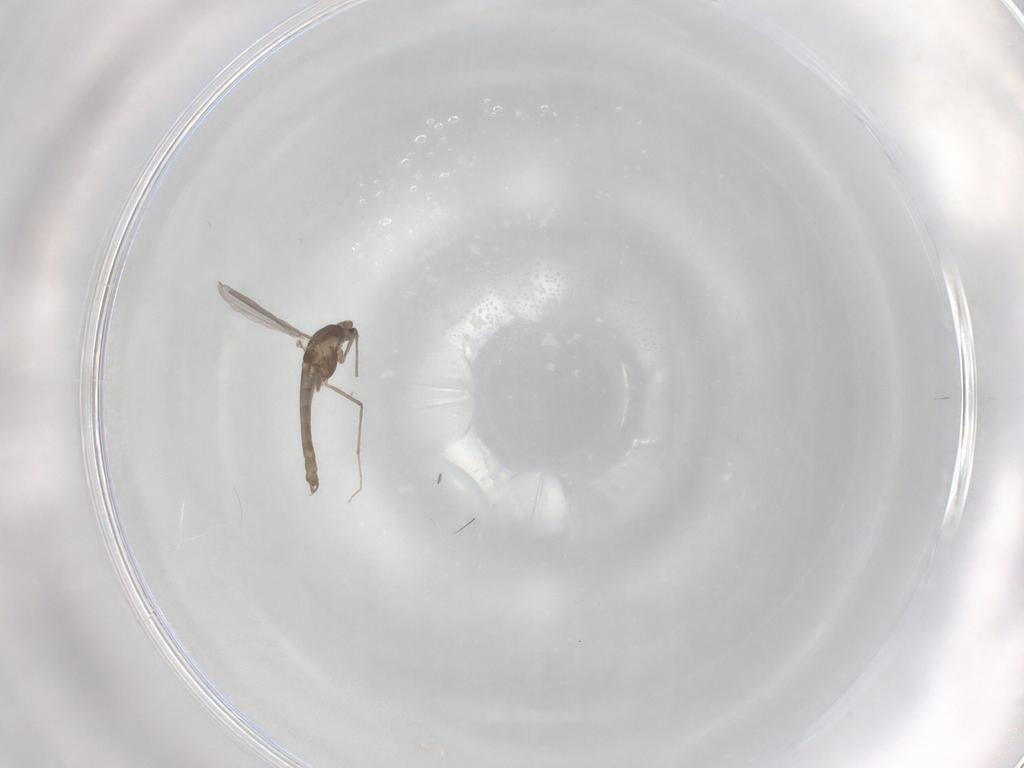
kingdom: Animalia
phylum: Arthropoda
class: Insecta
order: Diptera
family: Chironomidae
